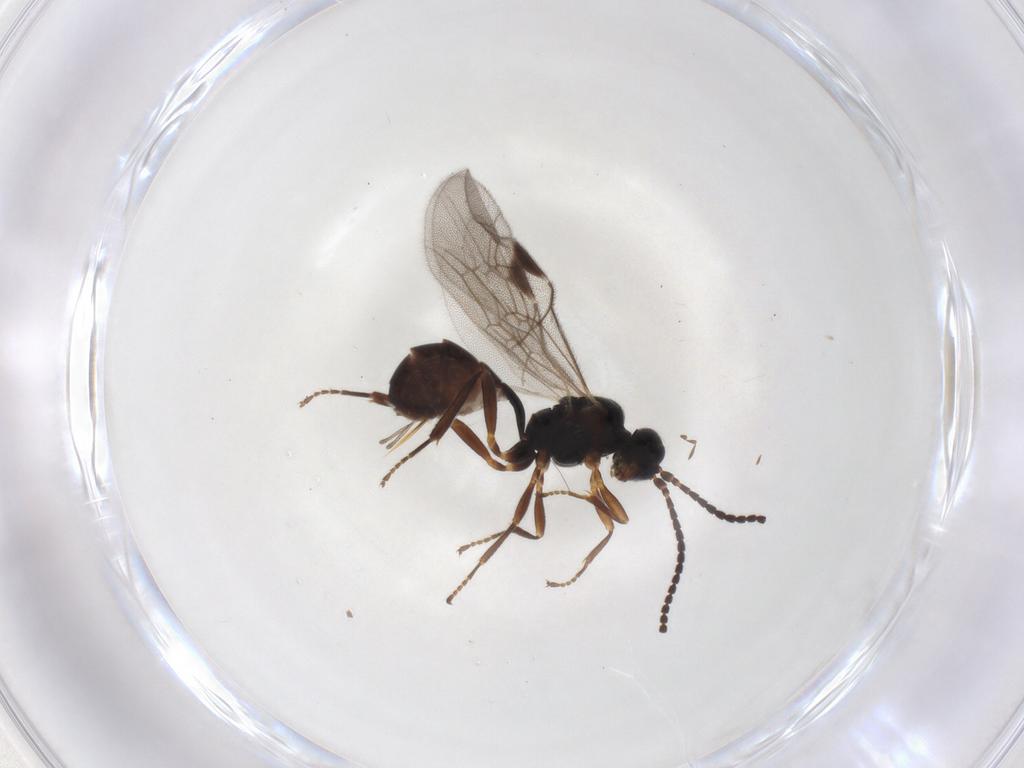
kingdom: Animalia
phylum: Arthropoda
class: Insecta
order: Hymenoptera
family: Ichneumonidae
